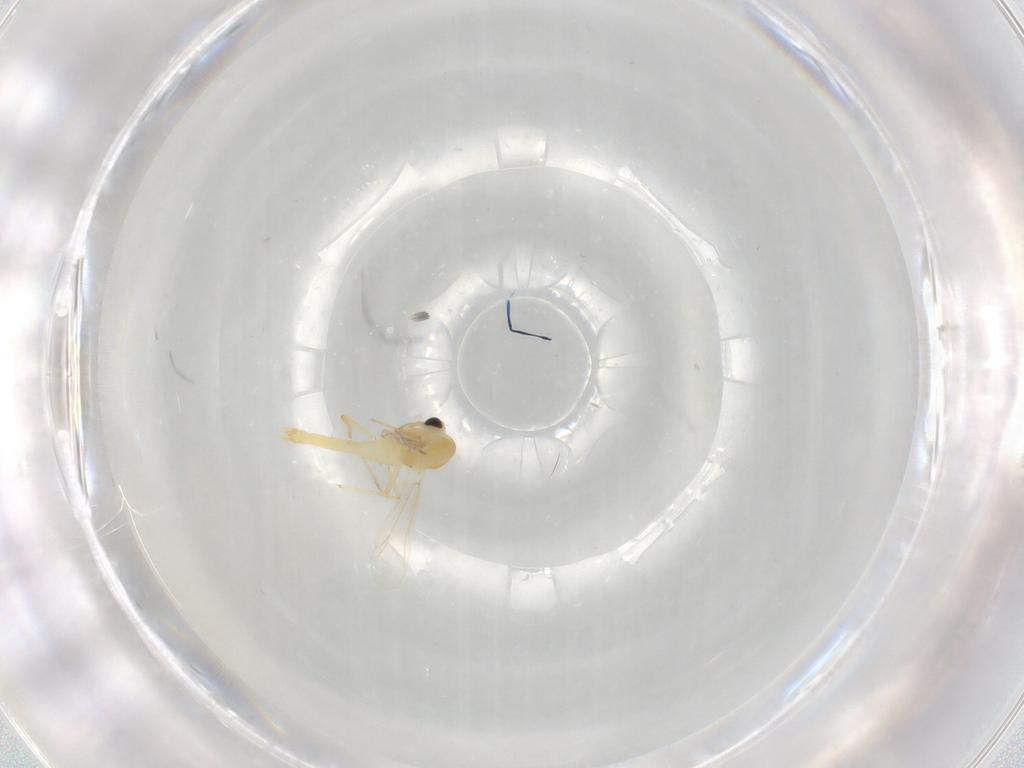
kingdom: Animalia
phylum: Arthropoda
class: Insecta
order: Diptera
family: Chironomidae
